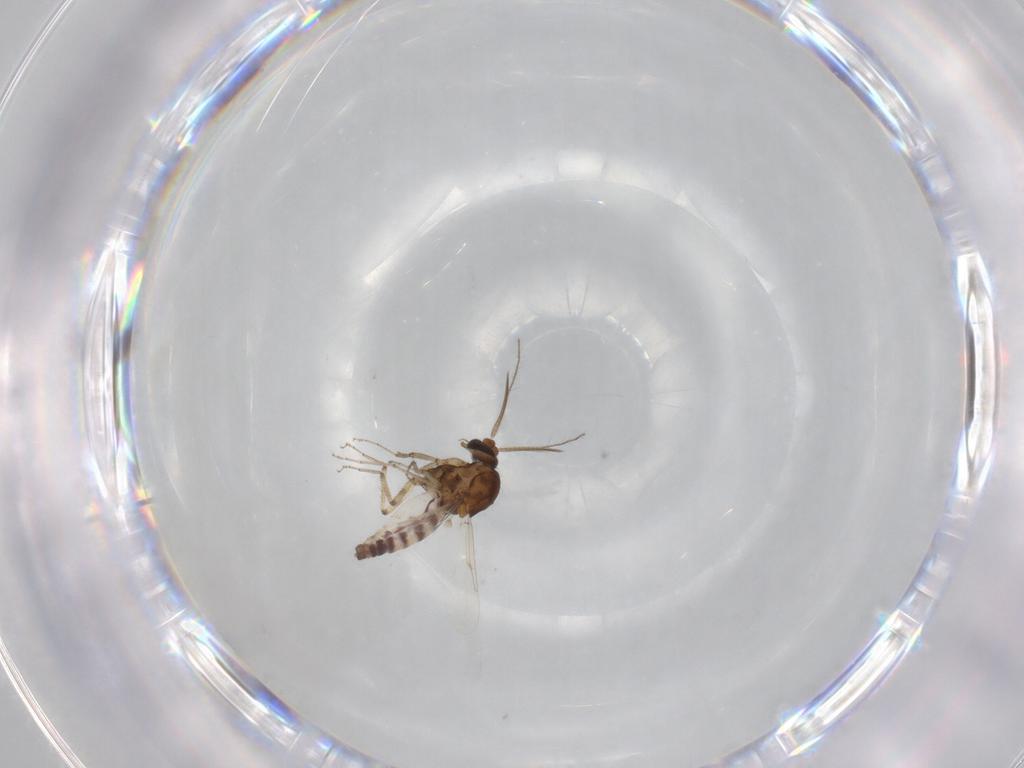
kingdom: Animalia
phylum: Arthropoda
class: Insecta
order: Diptera
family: Ceratopogonidae
